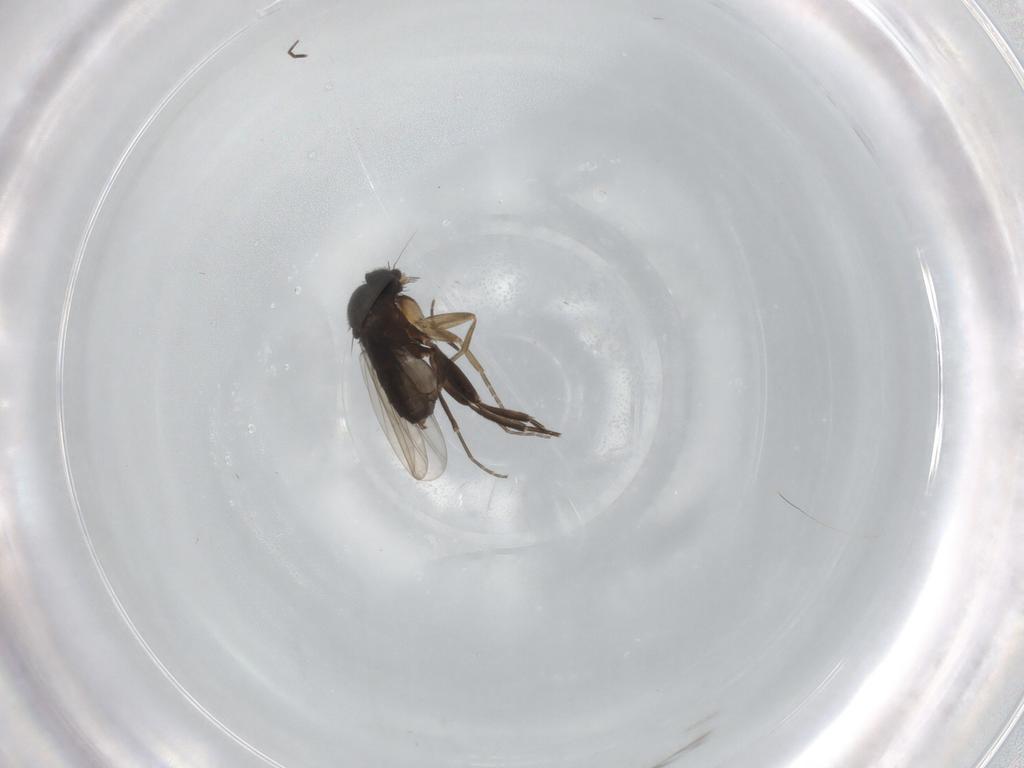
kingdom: Animalia
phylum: Arthropoda
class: Insecta
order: Diptera
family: Phoridae
